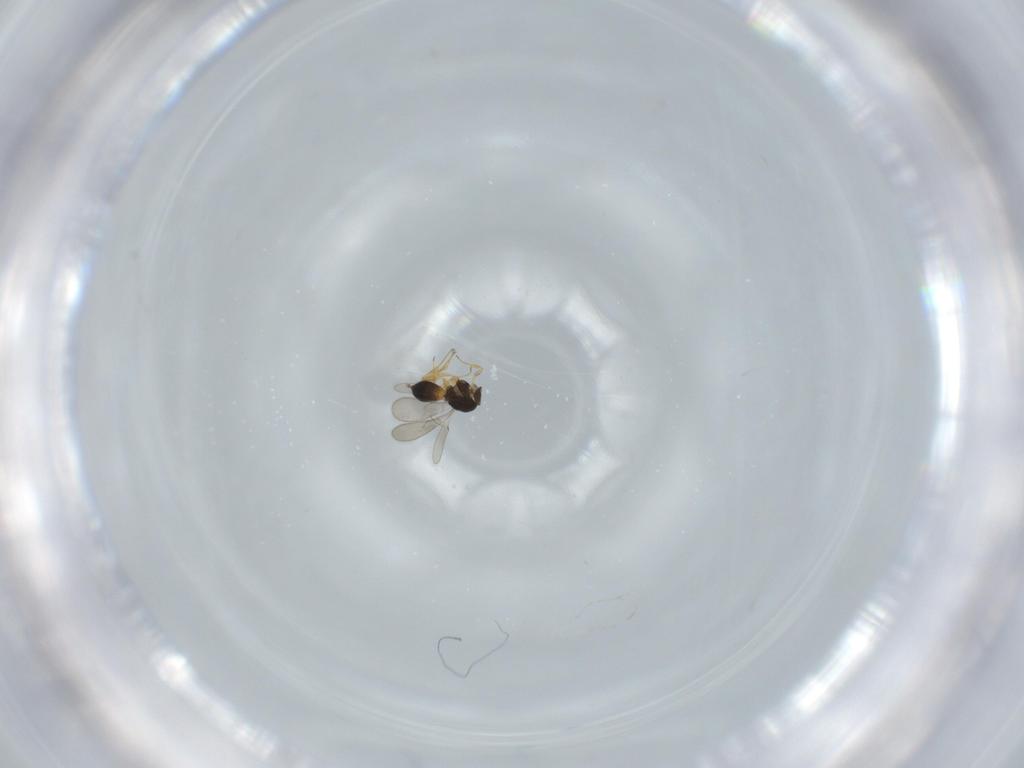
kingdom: Animalia
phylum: Arthropoda
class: Insecta
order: Hymenoptera
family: Scelionidae
